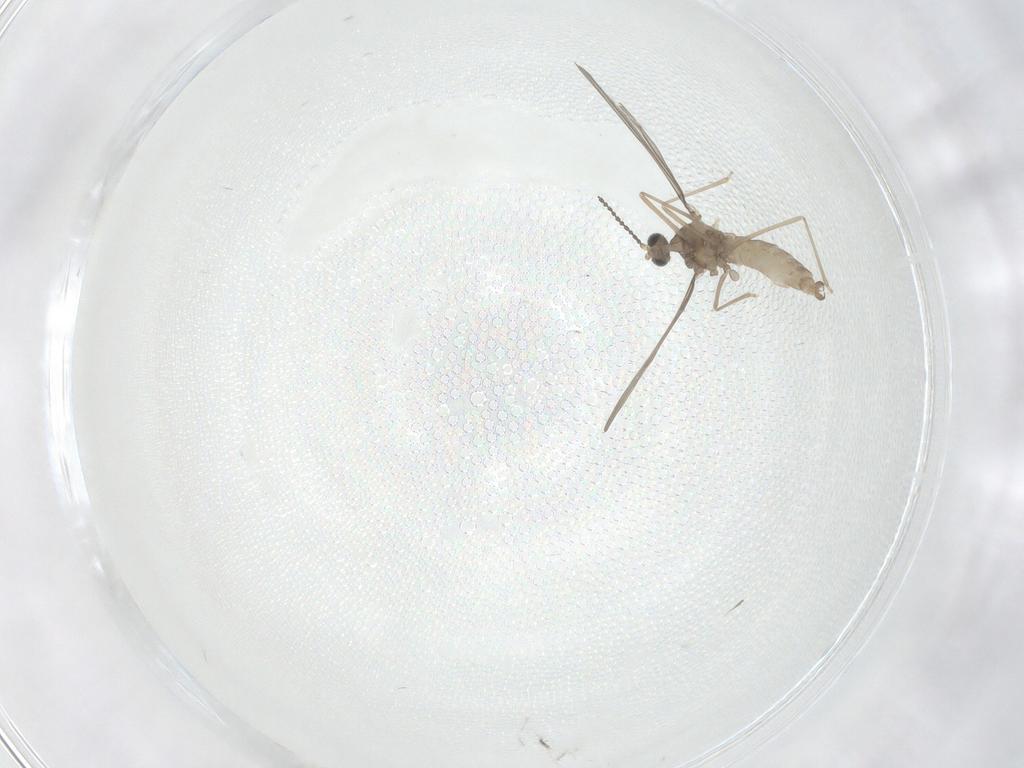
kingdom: Animalia
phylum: Arthropoda
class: Insecta
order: Diptera
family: Cecidomyiidae
